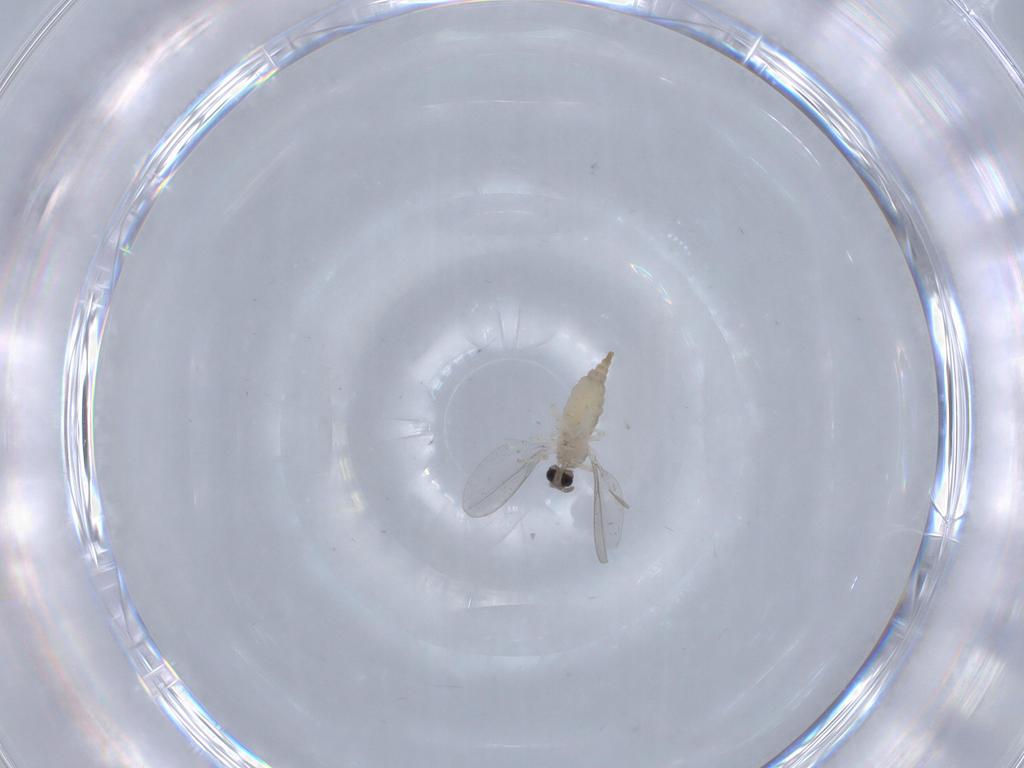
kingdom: Animalia
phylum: Arthropoda
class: Insecta
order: Diptera
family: Cecidomyiidae
